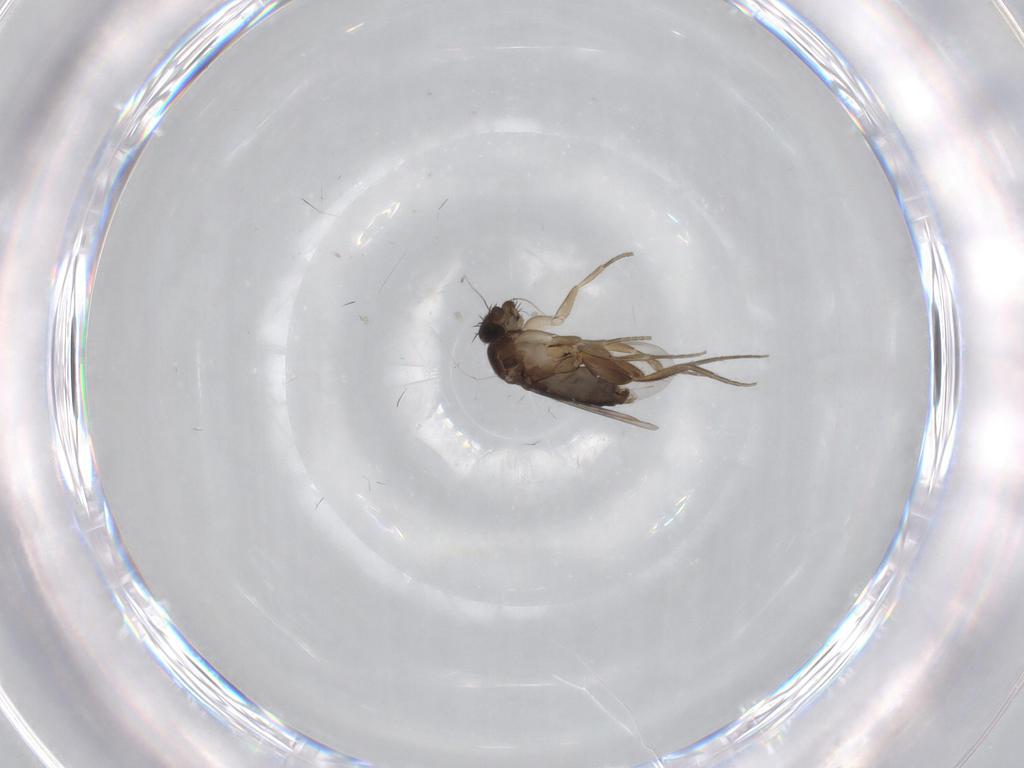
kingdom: Animalia
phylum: Arthropoda
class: Insecta
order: Diptera
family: Phoridae
